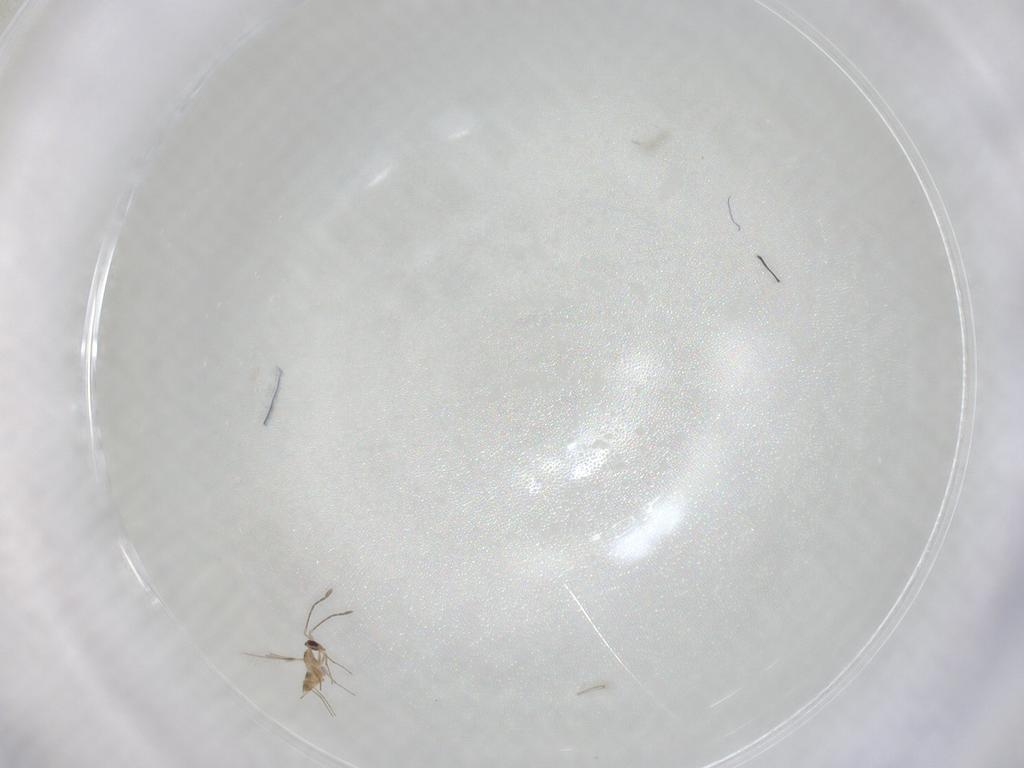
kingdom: Animalia
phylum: Arthropoda
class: Insecta
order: Hymenoptera
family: Mymaridae
